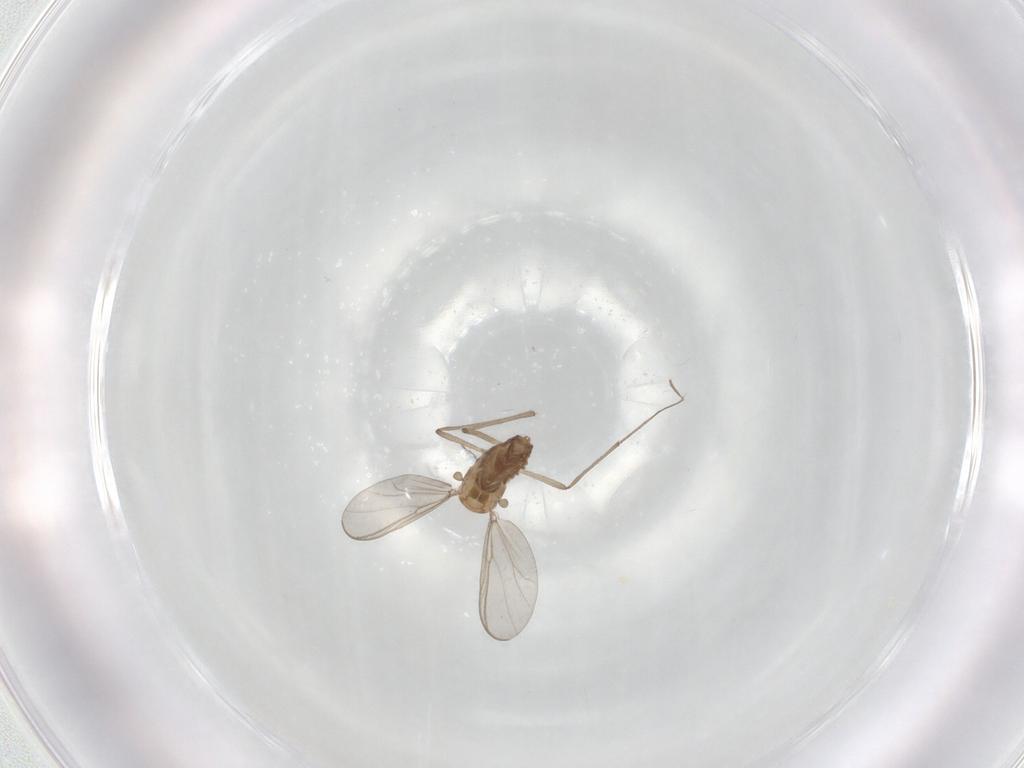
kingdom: Animalia
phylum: Arthropoda
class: Insecta
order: Diptera
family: Chironomidae
